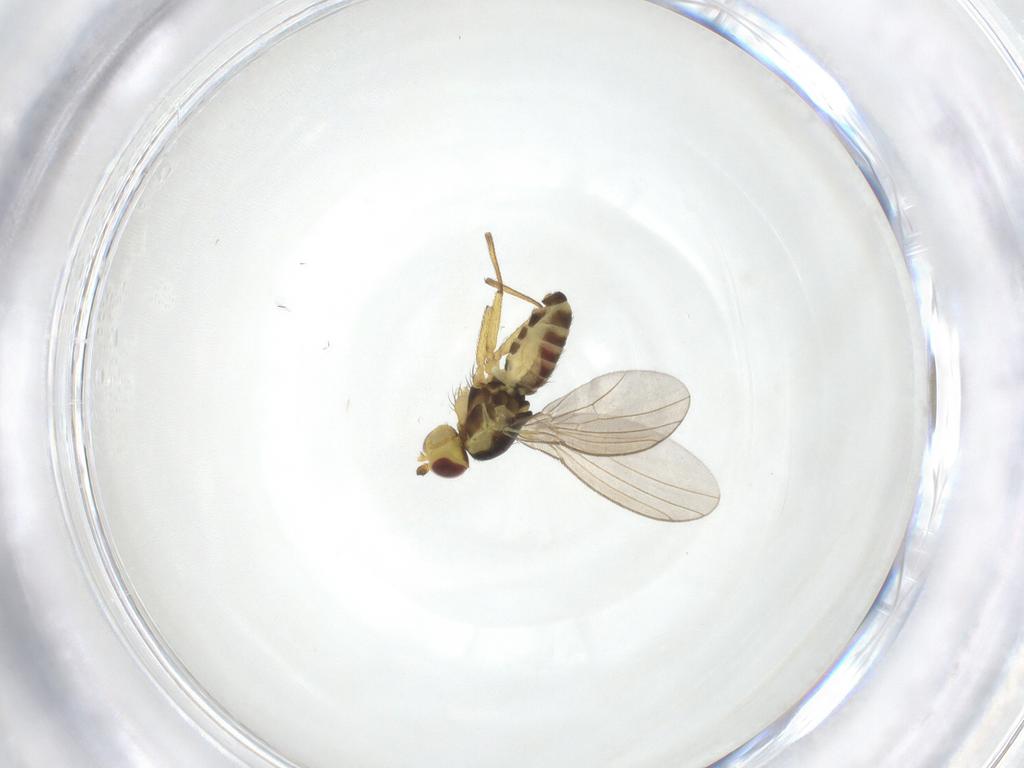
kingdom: Animalia
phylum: Arthropoda
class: Insecta
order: Diptera
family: Agromyzidae
